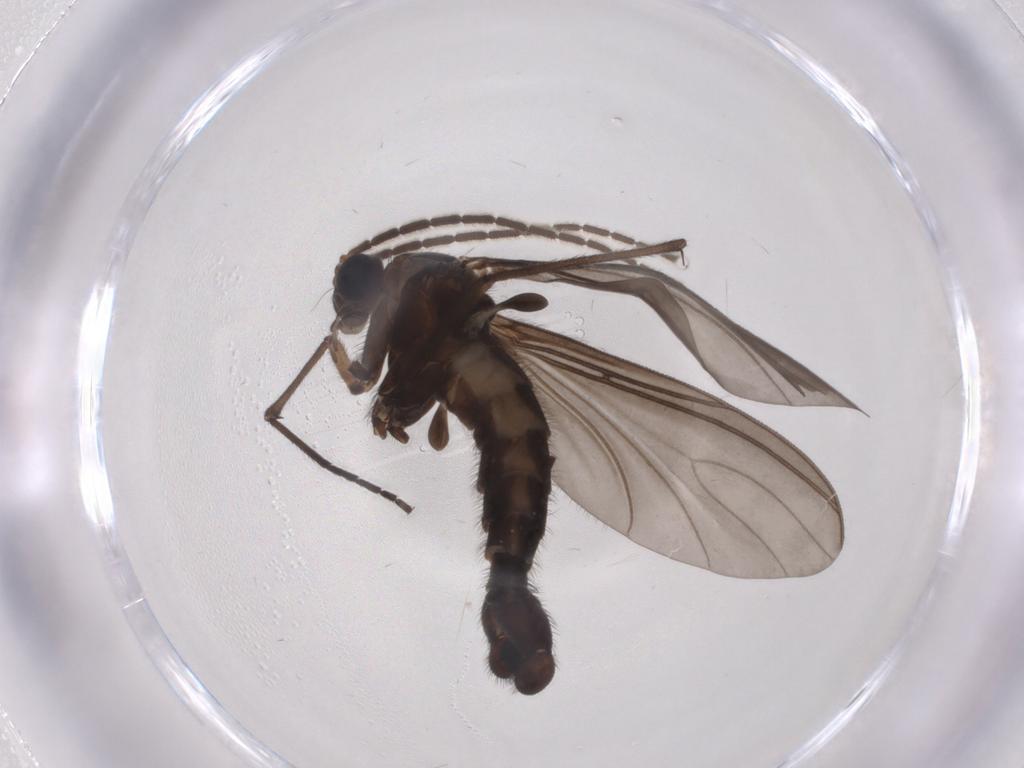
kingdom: Animalia
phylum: Arthropoda
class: Insecta
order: Diptera
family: Sciaridae
